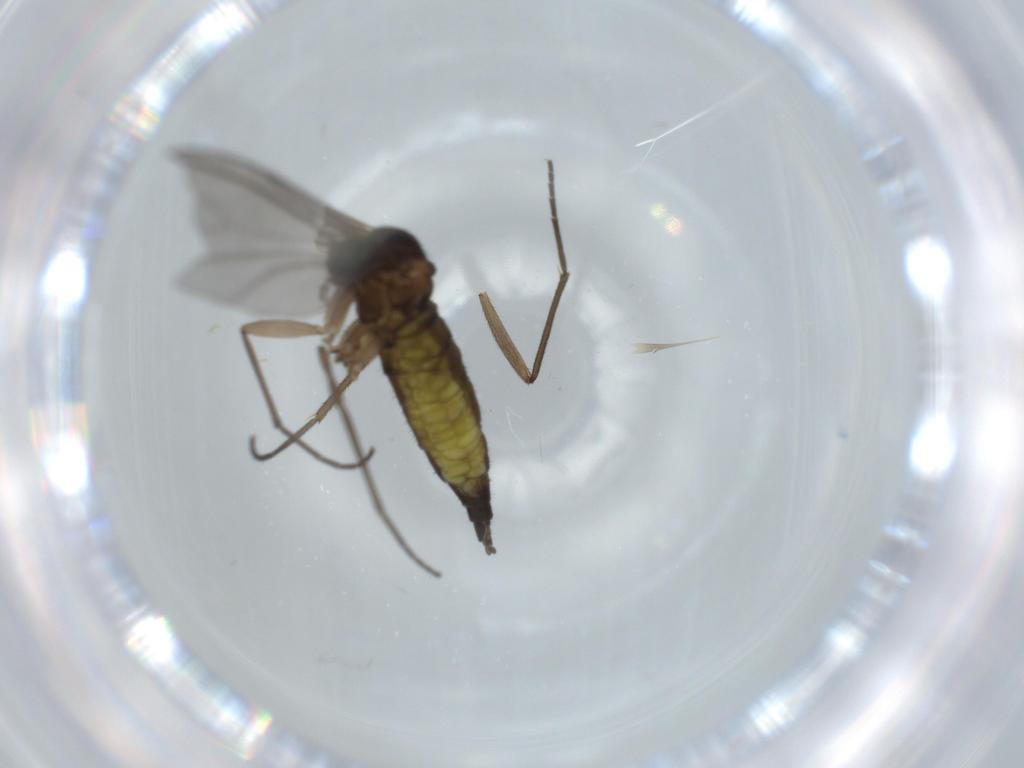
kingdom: Animalia
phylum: Arthropoda
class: Insecta
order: Diptera
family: Sciaridae
